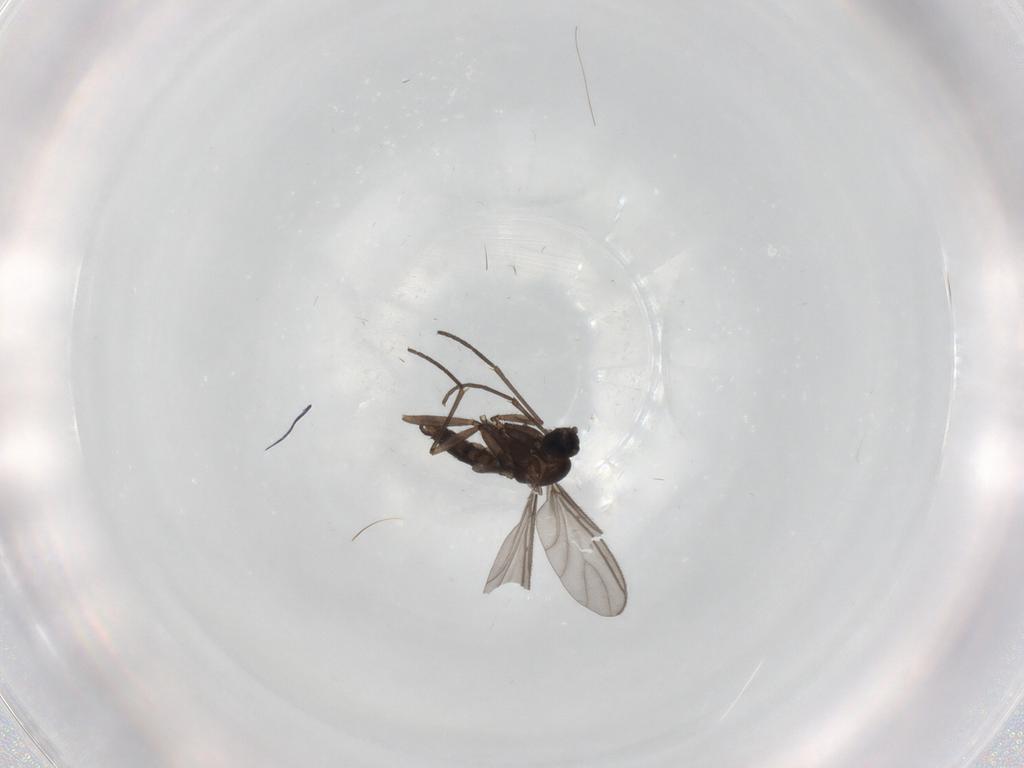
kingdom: Animalia
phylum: Arthropoda
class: Insecta
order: Diptera
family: Sciaridae
